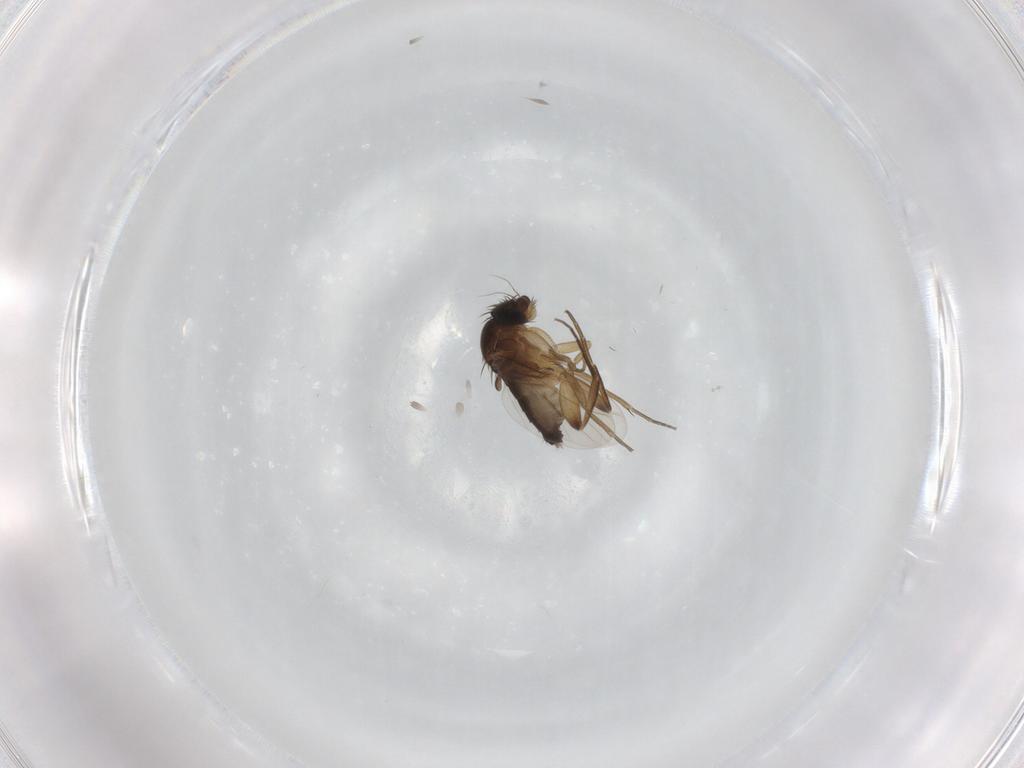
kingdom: Animalia
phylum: Arthropoda
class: Insecta
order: Diptera
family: Phoridae
